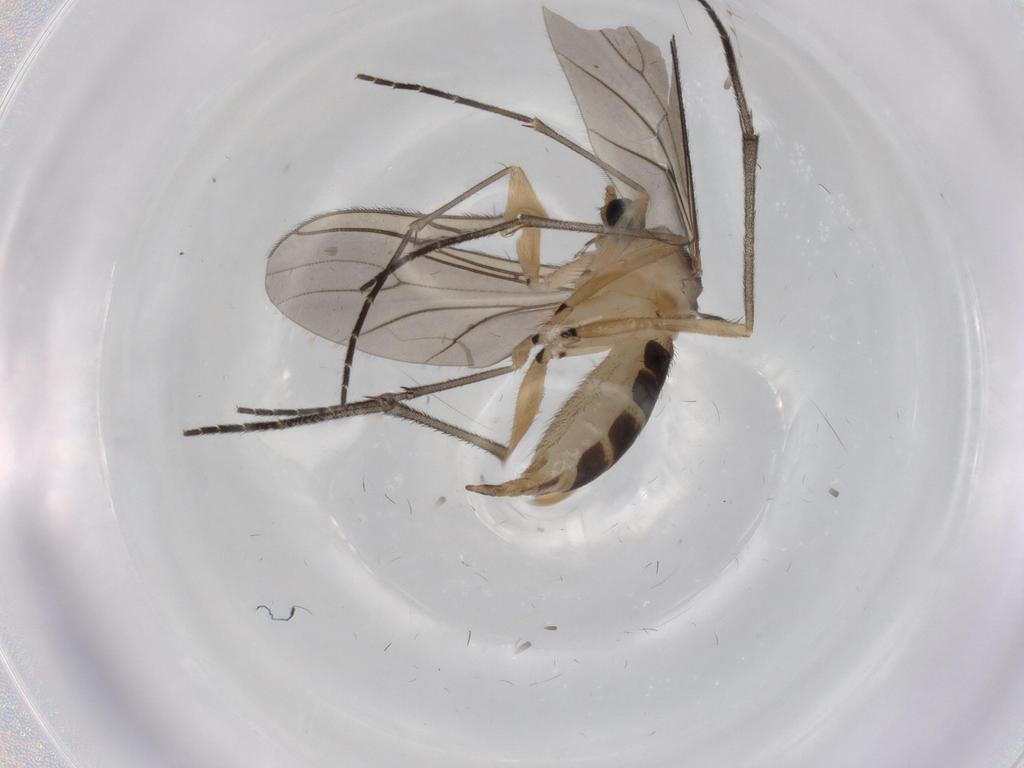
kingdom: Animalia
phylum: Arthropoda
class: Insecta
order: Diptera
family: Sciaridae
